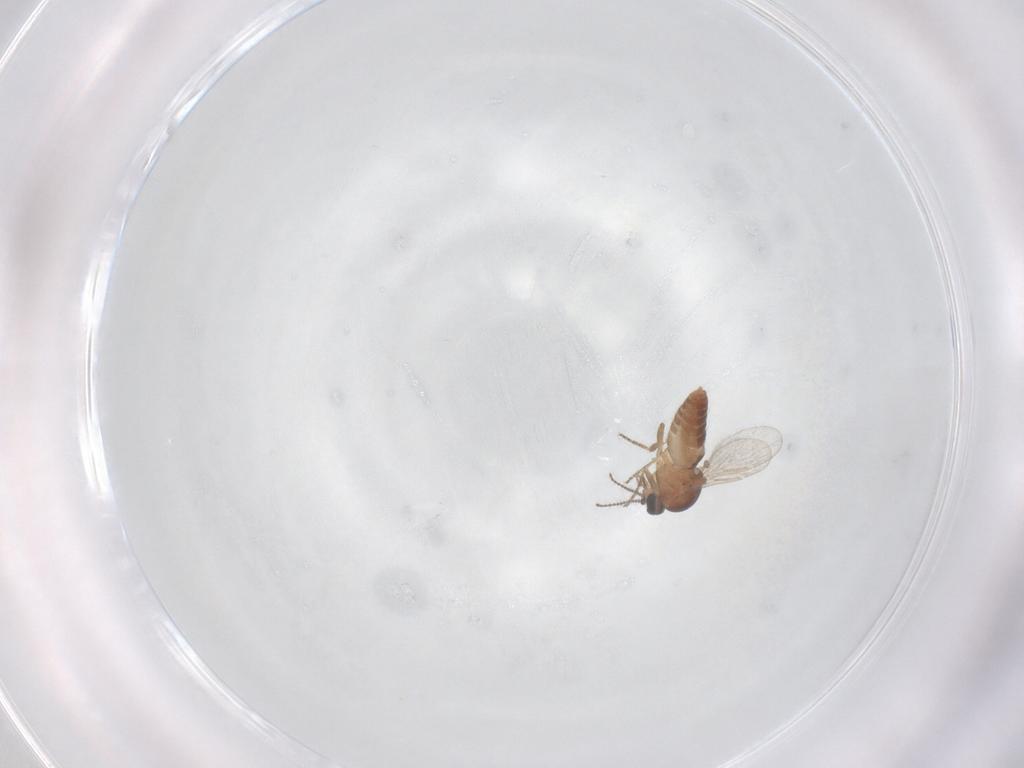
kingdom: Animalia
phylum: Arthropoda
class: Insecta
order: Diptera
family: Psychodidae
